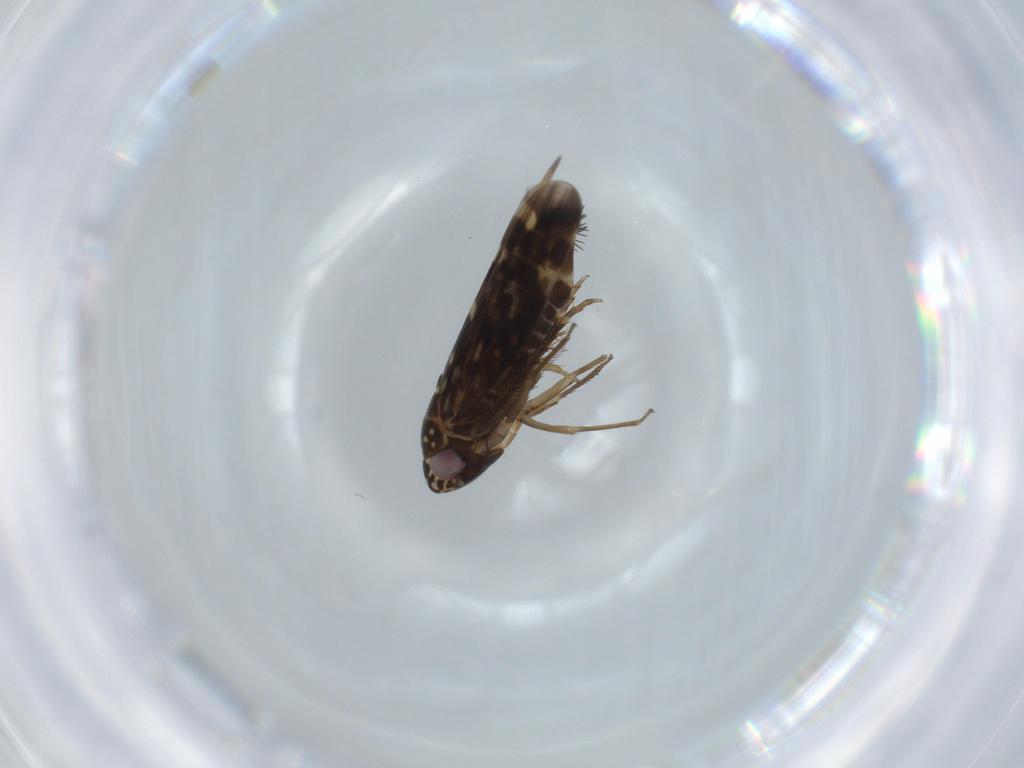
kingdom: Animalia
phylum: Arthropoda
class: Insecta
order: Hemiptera
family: Cicadellidae
